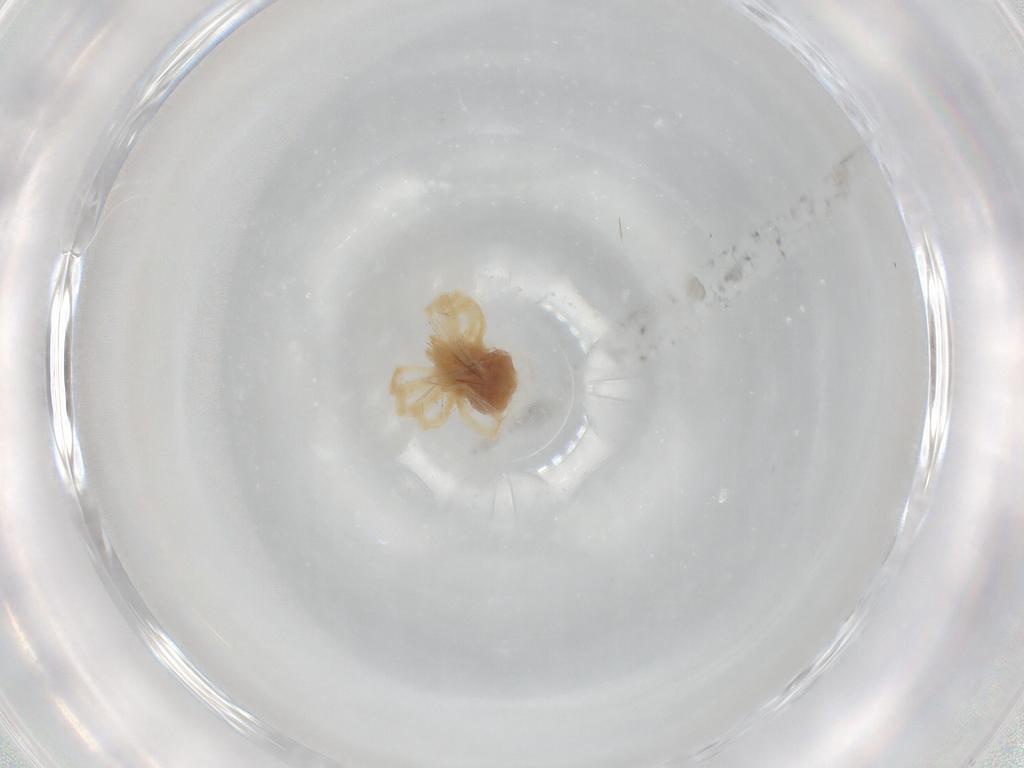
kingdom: Animalia
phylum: Arthropoda
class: Arachnida
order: Trombidiformes
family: Anystidae
